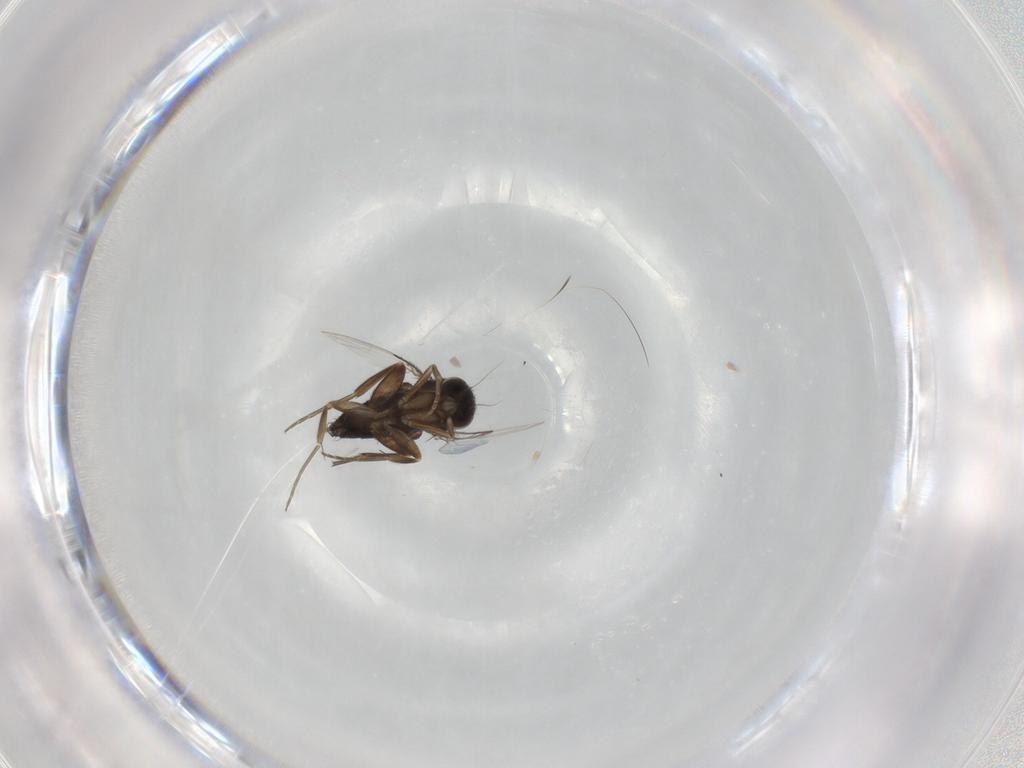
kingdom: Animalia
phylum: Arthropoda
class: Insecta
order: Diptera
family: Phoridae
